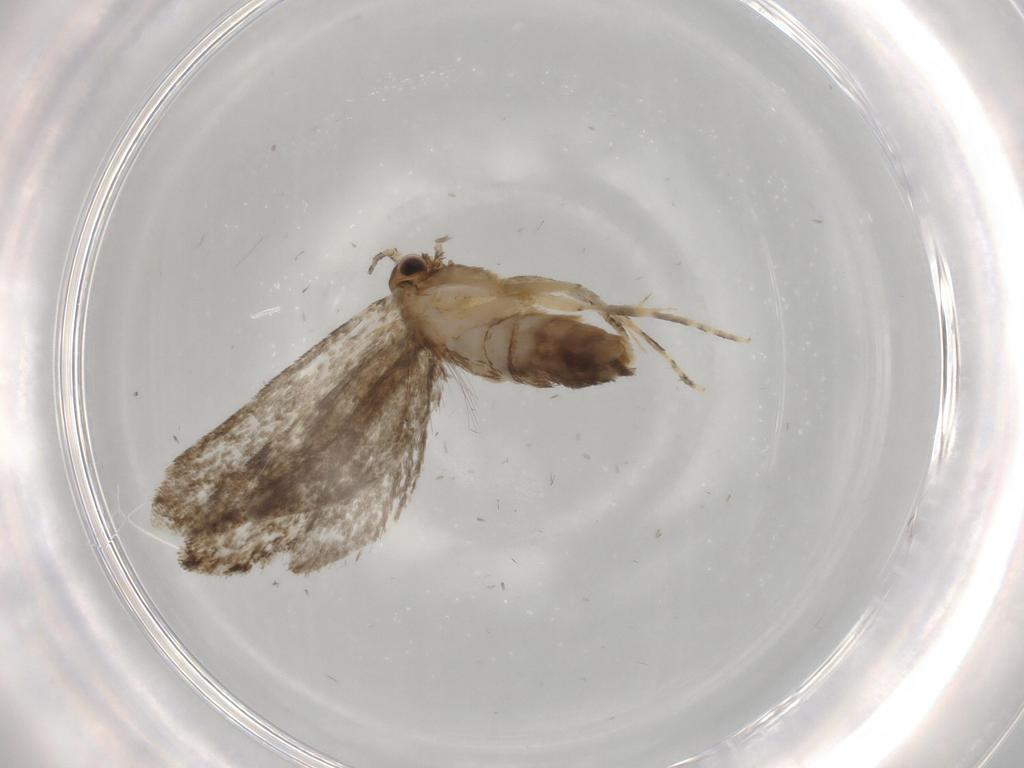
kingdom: Animalia
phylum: Arthropoda
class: Insecta
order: Lepidoptera
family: Tineidae
